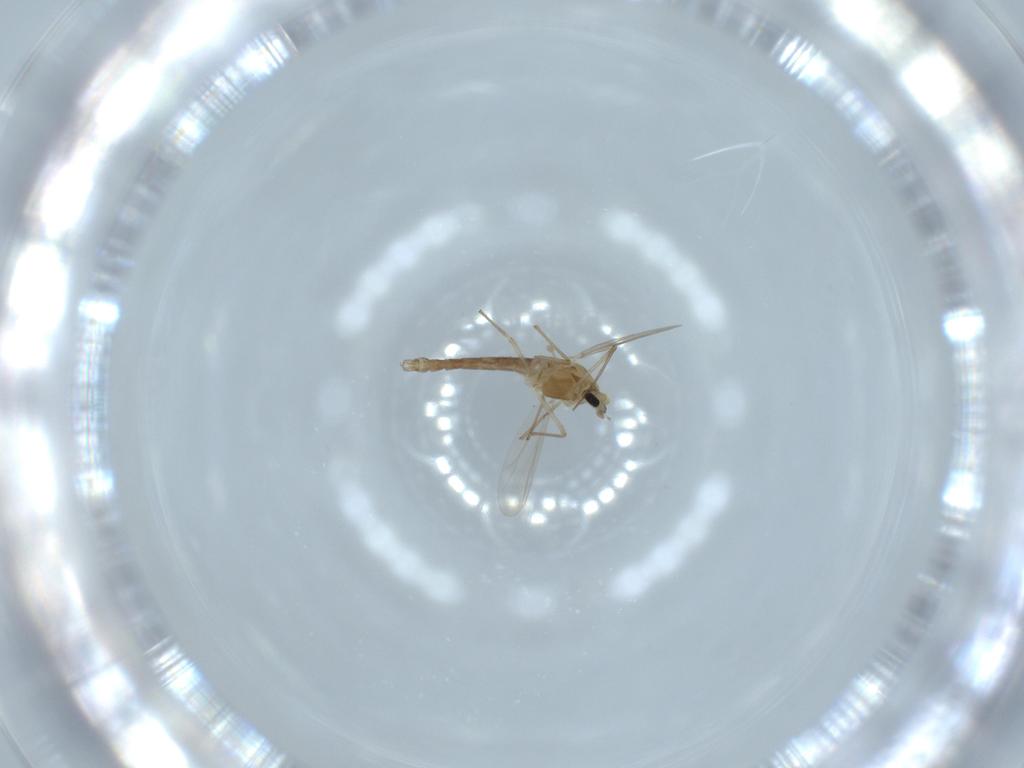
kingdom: Animalia
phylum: Arthropoda
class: Insecta
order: Diptera
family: Chironomidae
